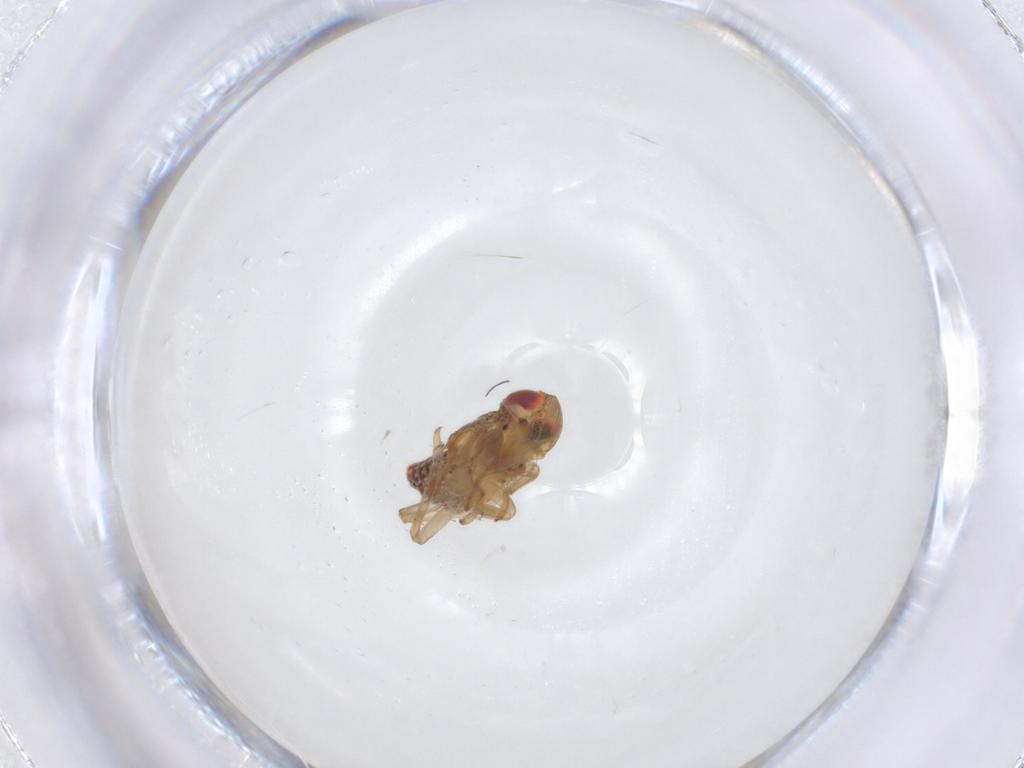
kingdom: Animalia
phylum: Arthropoda
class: Insecta
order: Hemiptera
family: Issidae
